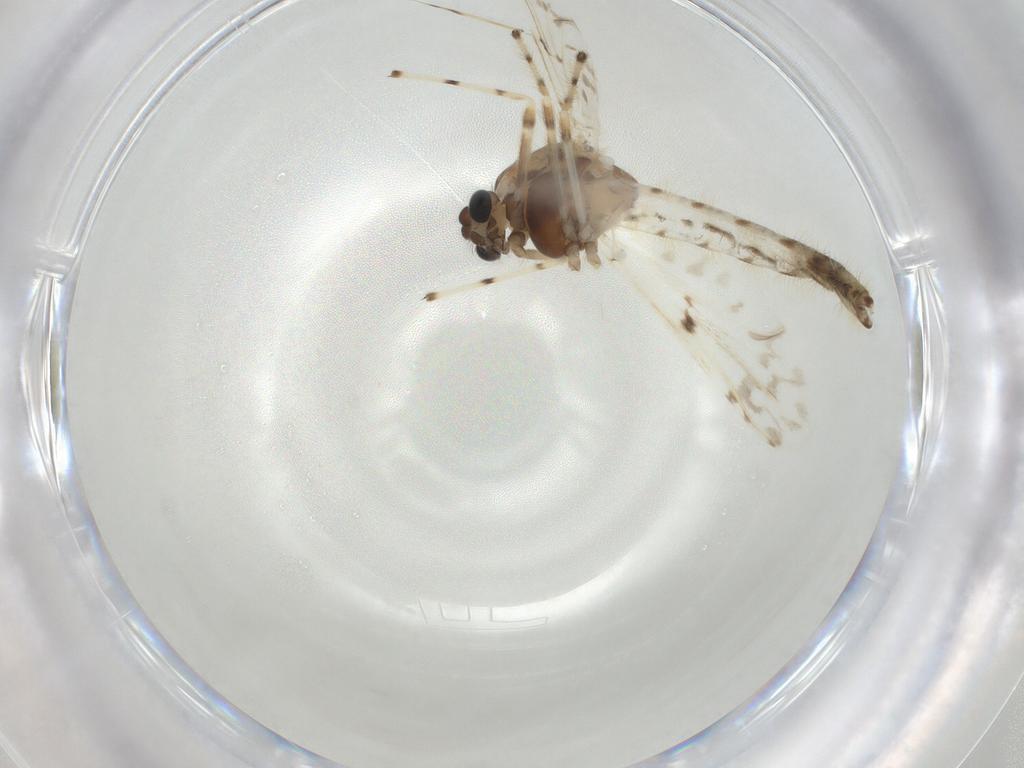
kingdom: Animalia
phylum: Arthropoda
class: Insecta
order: Diptera
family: Chironomidae
